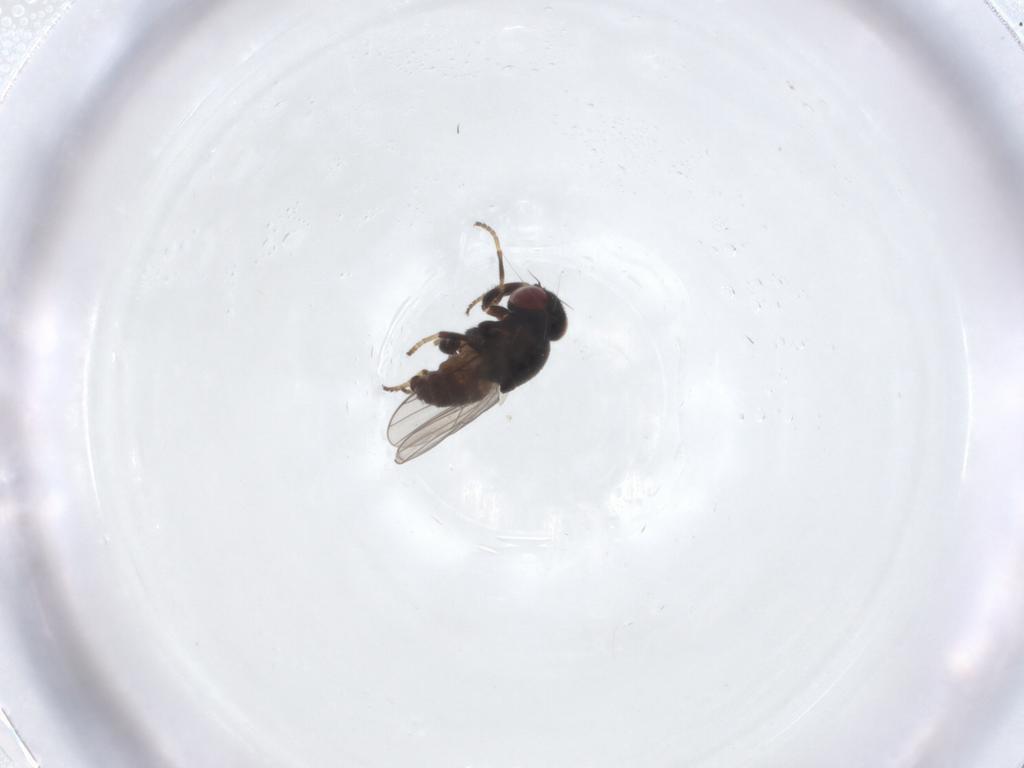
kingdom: Animalia
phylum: Arthropoda
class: Insecta
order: Diptera
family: Chloropidae
